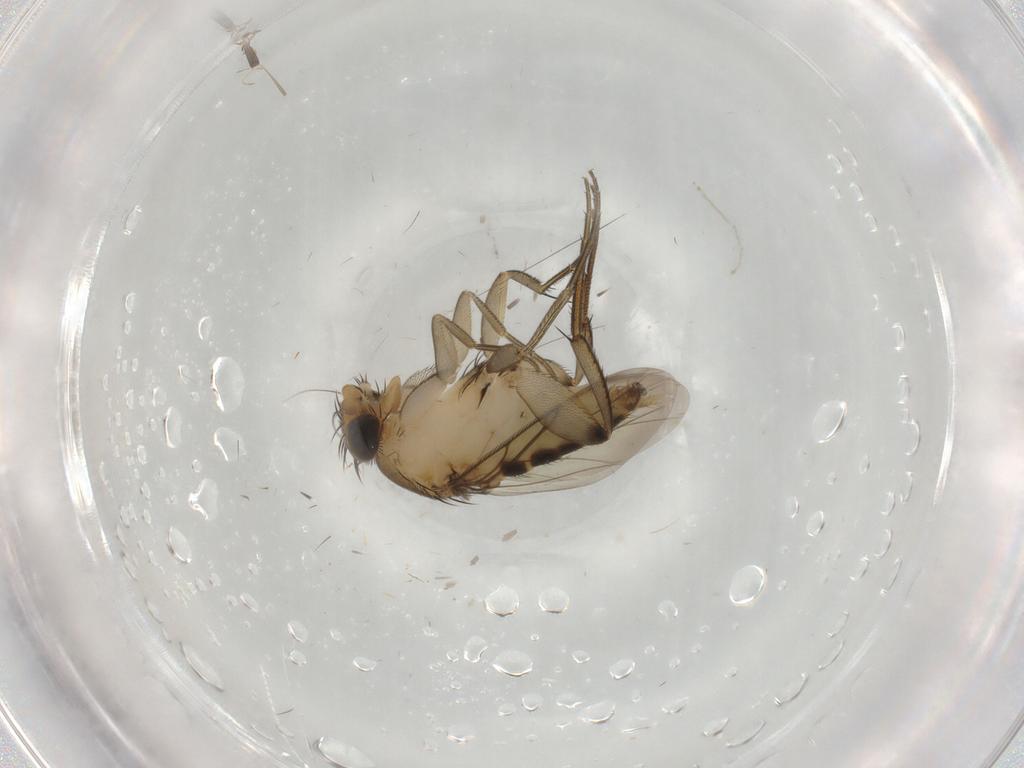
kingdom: Animalia
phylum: Arthropoda
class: Insecta
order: Diptera
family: Phoridae
